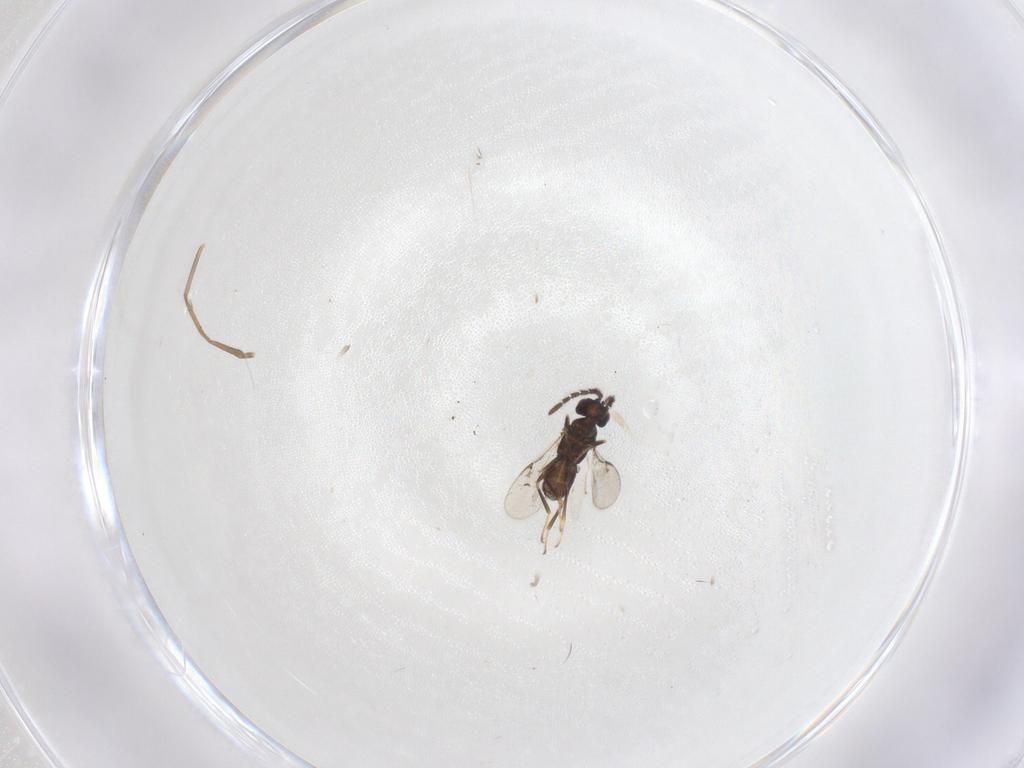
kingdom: Animalia
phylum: Arthropoda
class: Insecta
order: Hymenoptera
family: Encyrtidae
